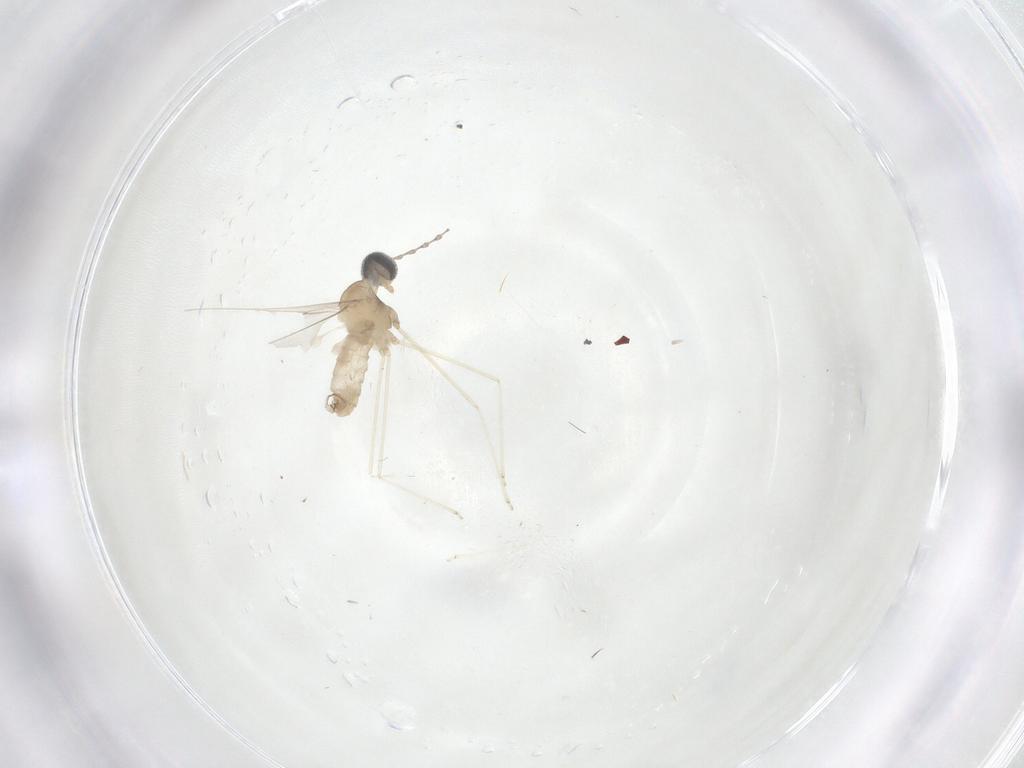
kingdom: Animalia
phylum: Arthropoda
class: Insecta
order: Diptera
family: Cecidomyiidae
